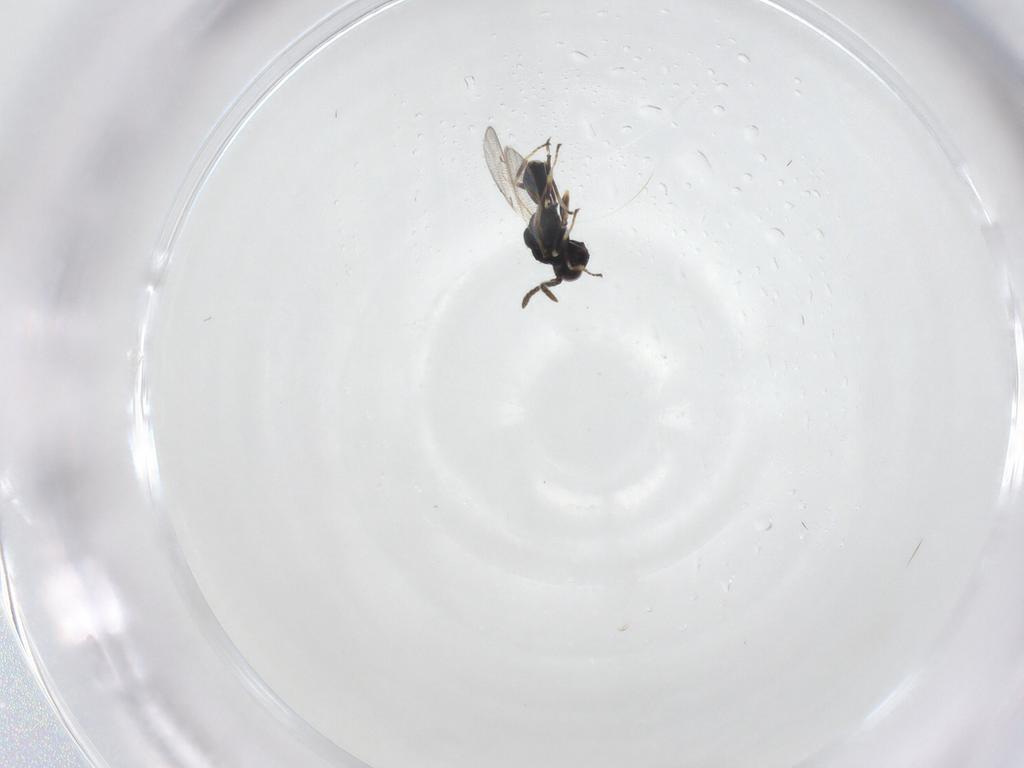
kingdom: Animalia
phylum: Arthropoda
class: Insecta
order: Hymenoptera
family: Pteromalidae
